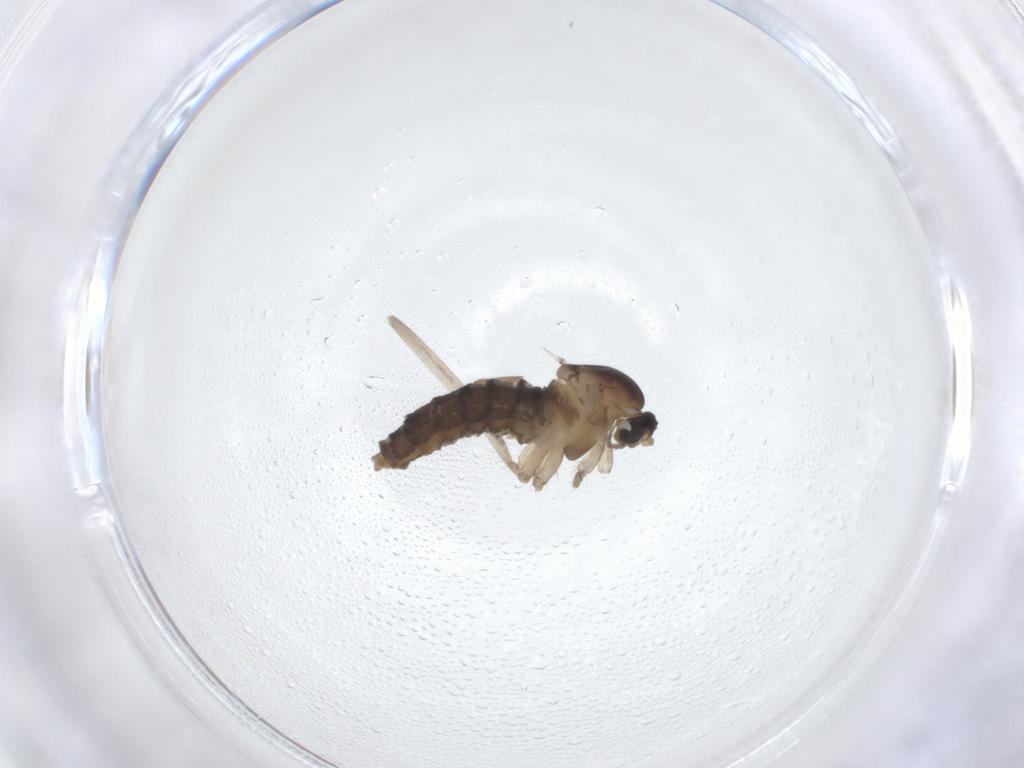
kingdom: Animalia
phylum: Arthropoda
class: Insecta
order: Diptera
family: Cecidomyiidae
